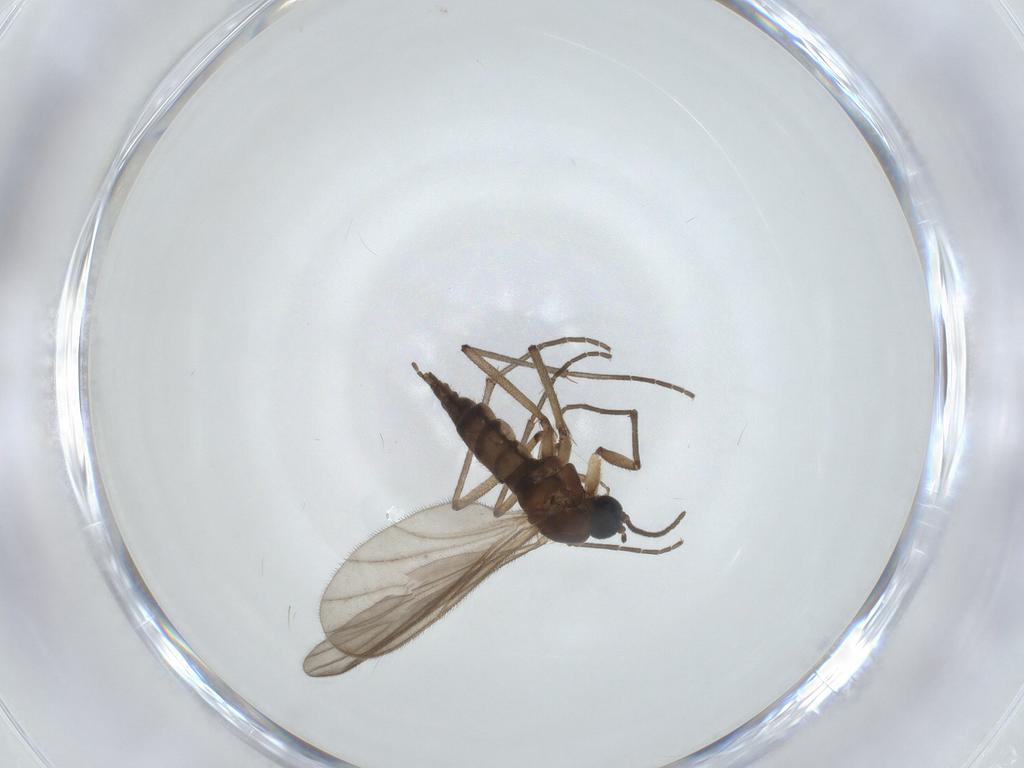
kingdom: Animalia
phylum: Arthropoda
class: Insecta
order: Diptera
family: Sciaridae
